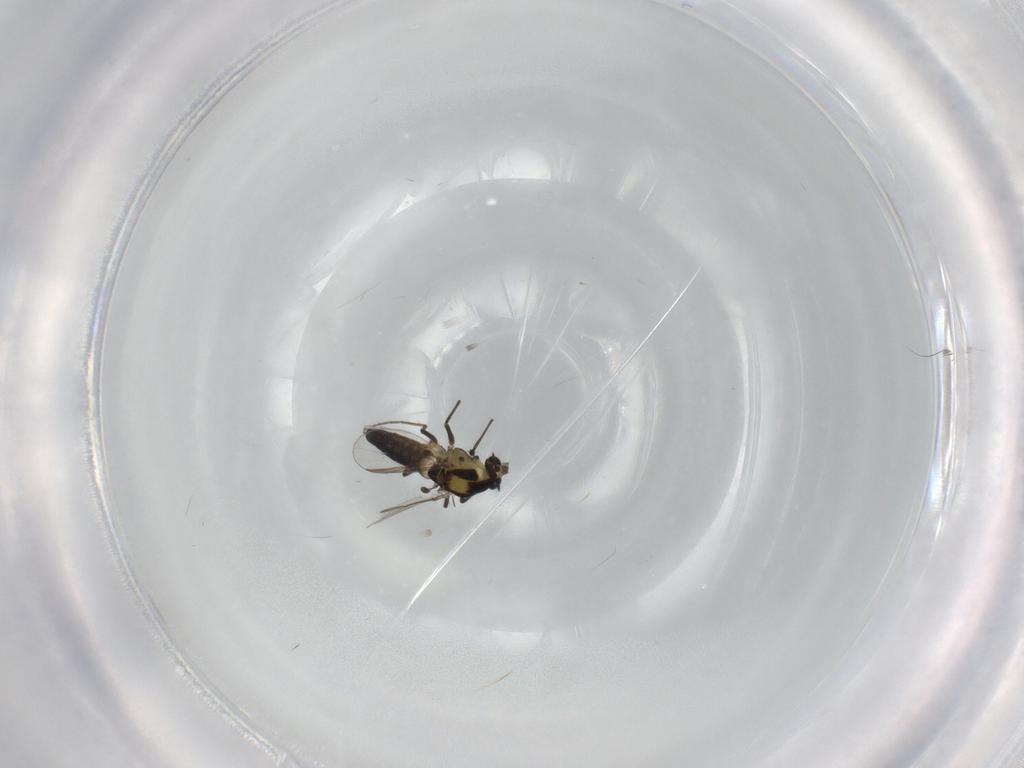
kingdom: Animalia
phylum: Arthropoda
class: Insecta
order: Diptera
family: Chironomidae
